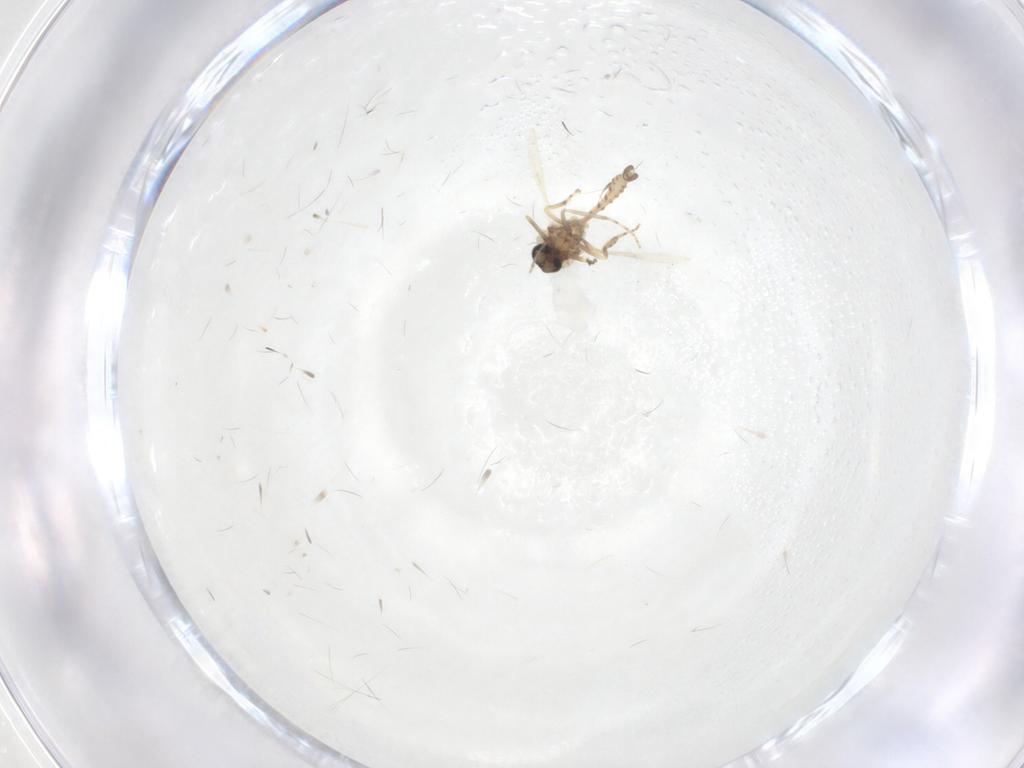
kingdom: Animalia
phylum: Arthropoda
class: Insecta
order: Diptera
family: Ceratopogonidae
